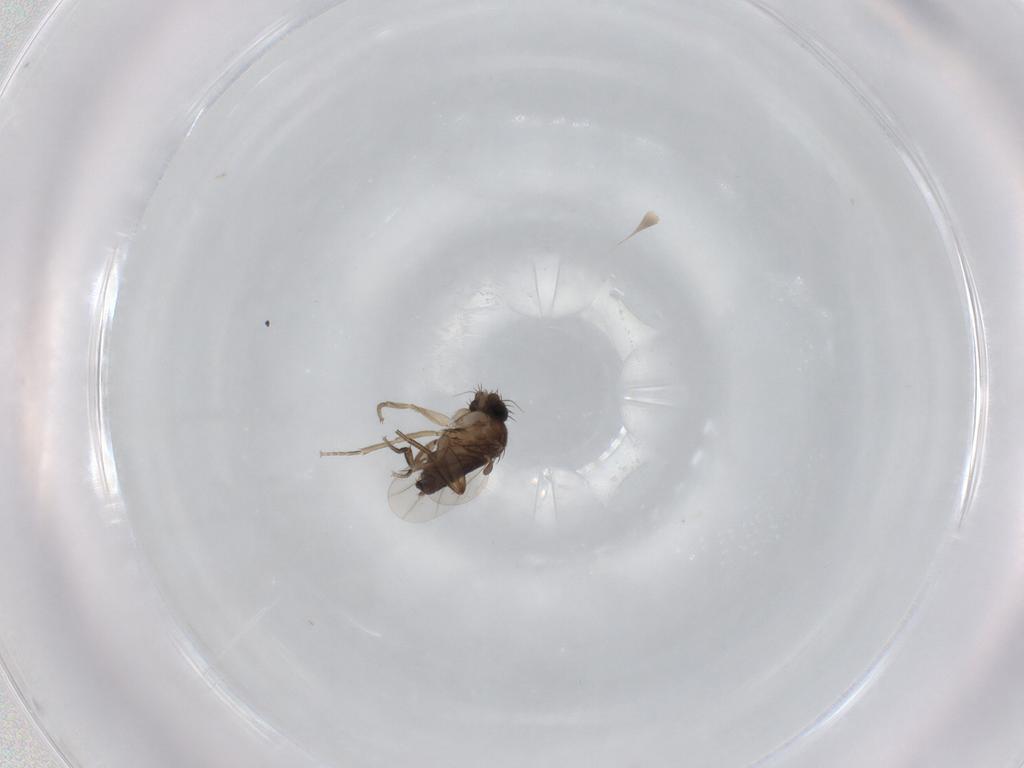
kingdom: Animalia
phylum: Arthropoda
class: Insecta
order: Diptera
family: Phoridae
